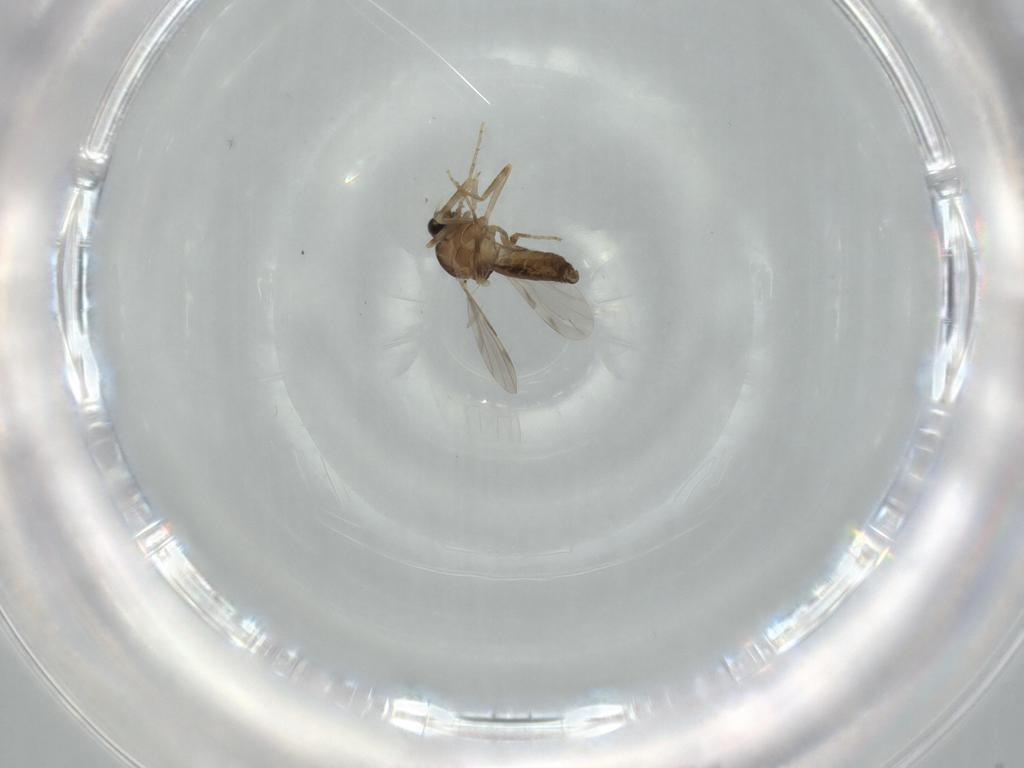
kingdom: Animalia
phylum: Arthropoda
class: Insecta
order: Diptera
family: Ceratopogonidae
